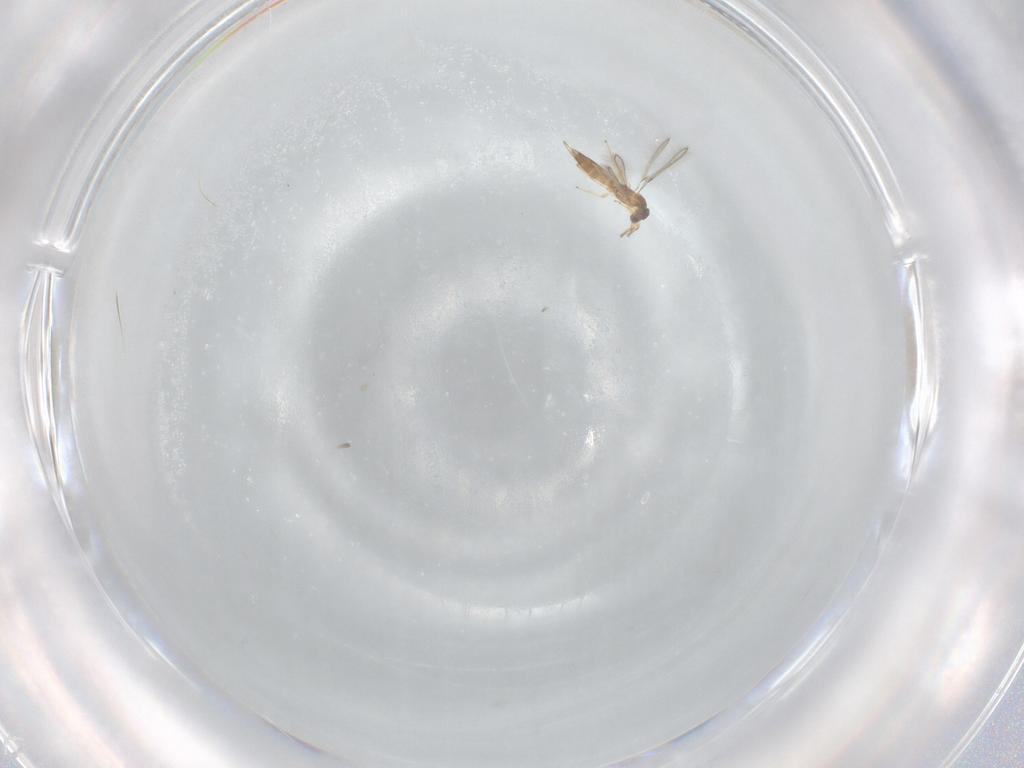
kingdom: Animalia
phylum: Arthropoda
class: Insecta
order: Hymenoptera
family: Mymaridae
